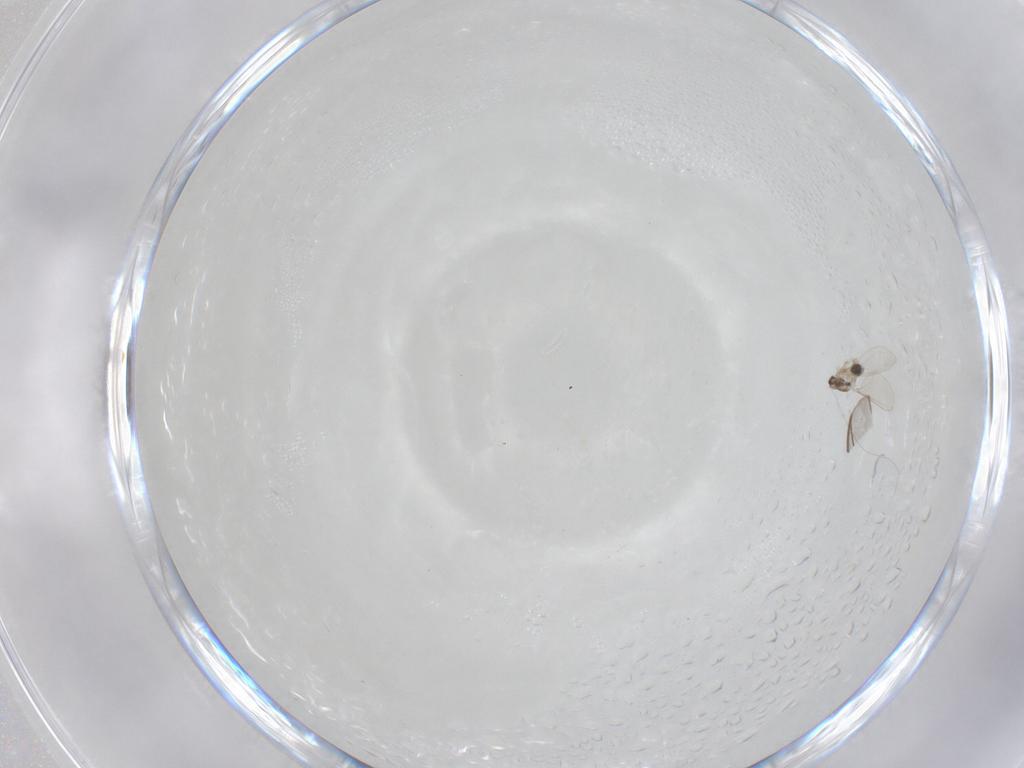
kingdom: Animalia
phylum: Arthropoda
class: Insecta
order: Diptera
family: Dolichopodidae
